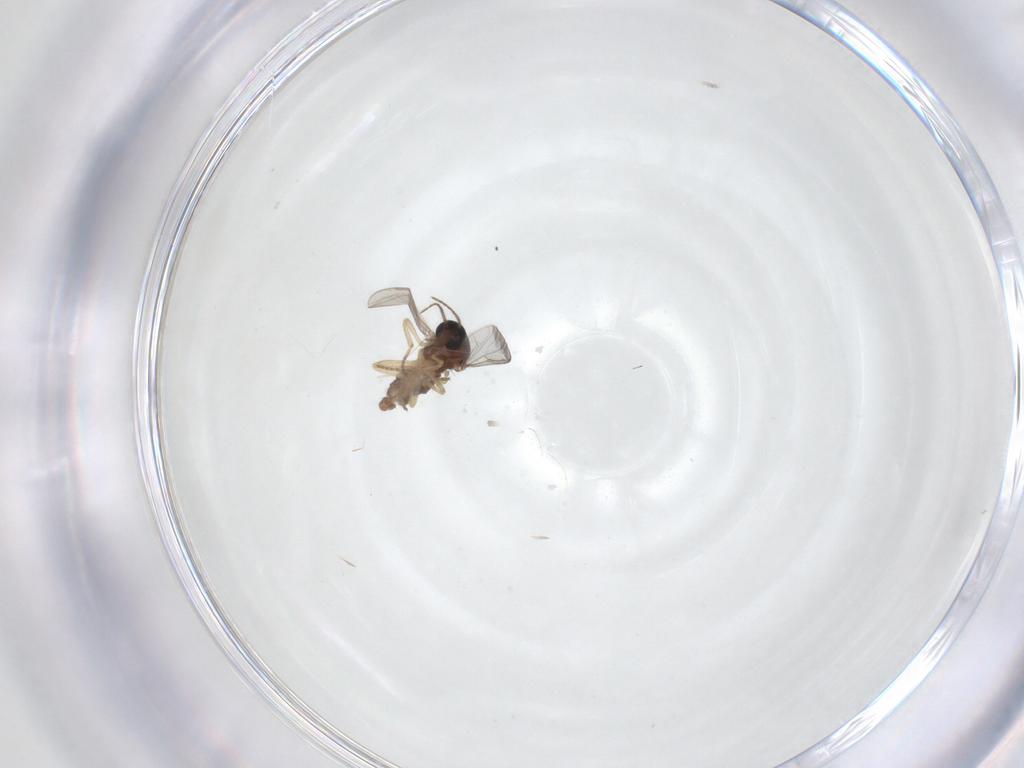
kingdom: Animalia
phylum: Arthropoda
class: Insecta
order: Diptera
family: Ceratopogonidae
